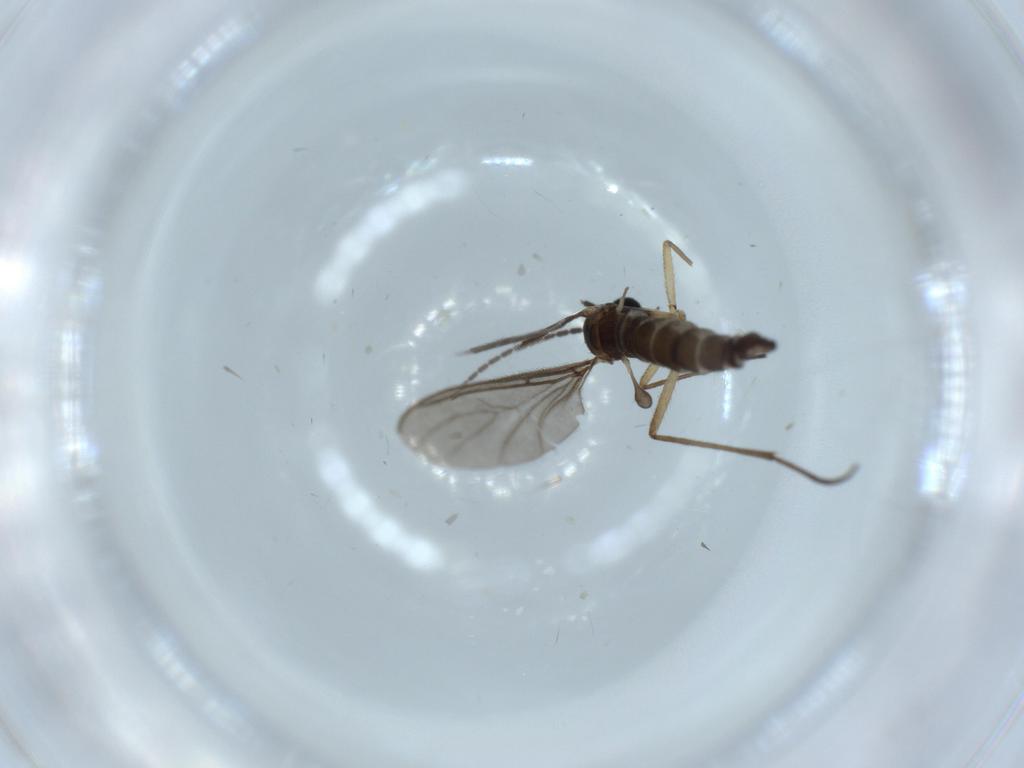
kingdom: Animalia
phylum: Arthropoda
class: Insecta
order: Diptera
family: Sciaridae
